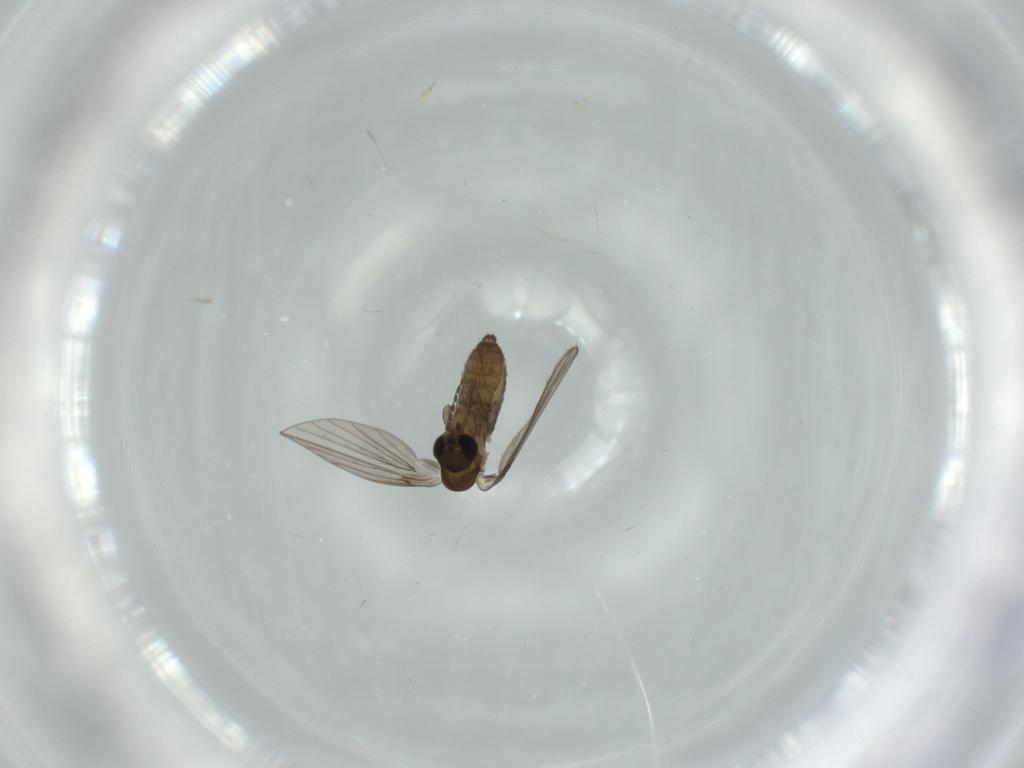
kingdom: Animalia
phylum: Arthropoda
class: Insecta
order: Diptera
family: Psychodidae
